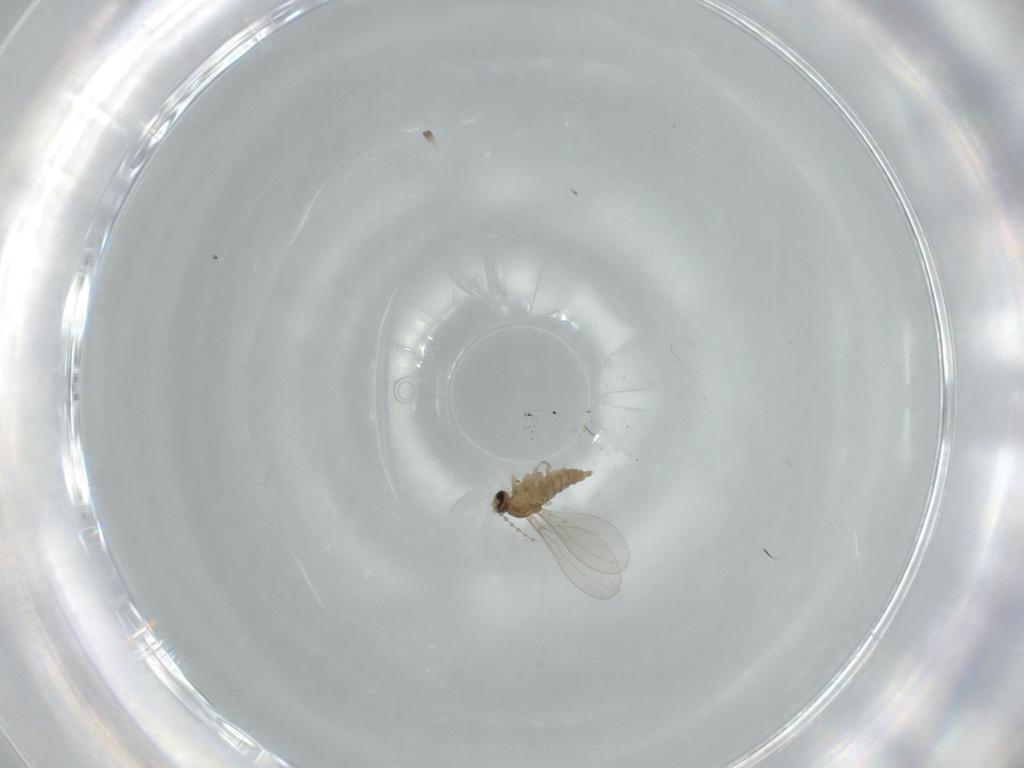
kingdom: Animalia
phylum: Arthropoda
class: Insecta
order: Diptera
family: Cecidomyiidae
